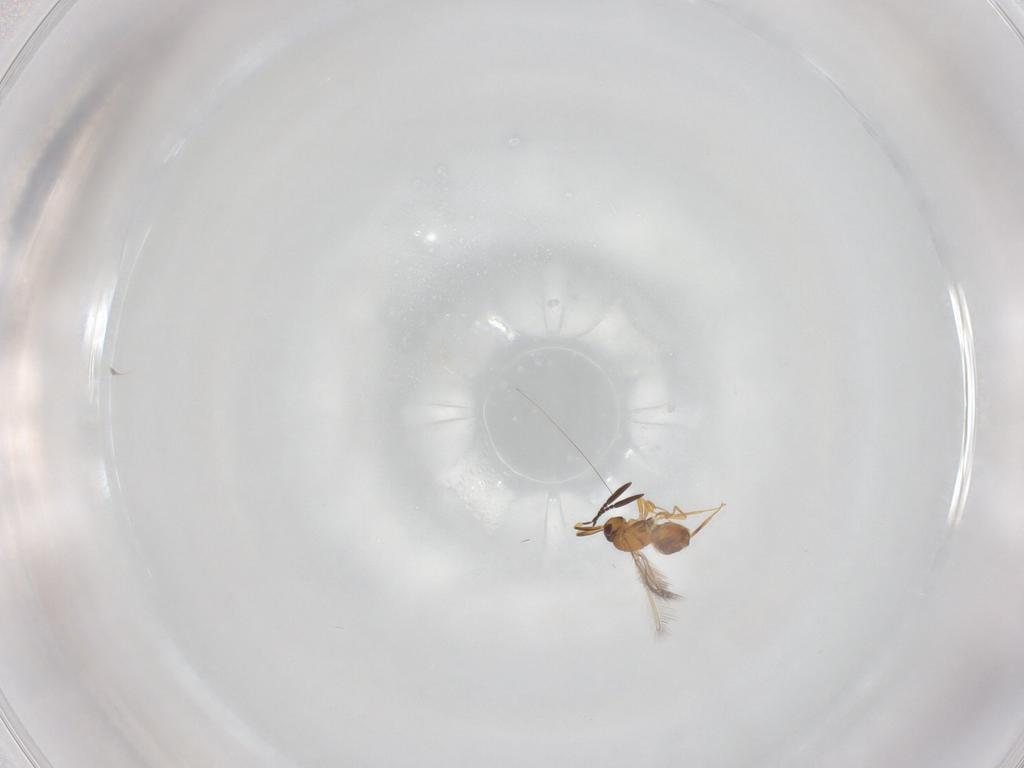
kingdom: Animalia
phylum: Arthropoda
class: Insecta
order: Hymenoptera
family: Mymaridae
